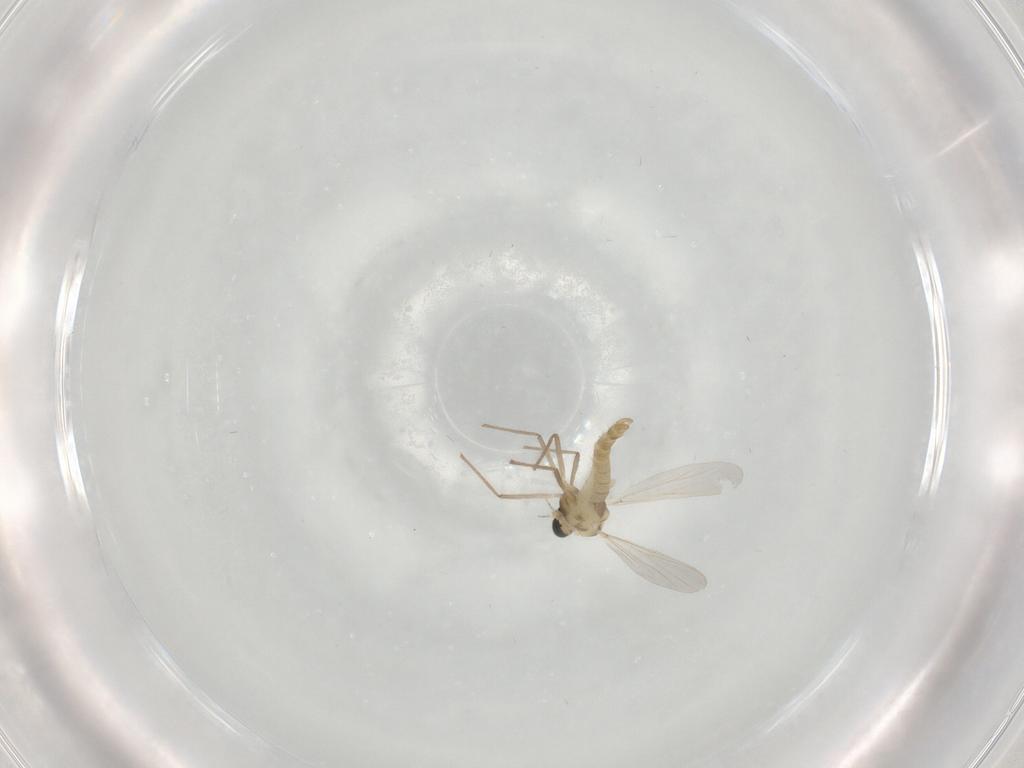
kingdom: Animalia
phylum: Arthropoda
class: Insecta
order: Diptera
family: Chironomidae
